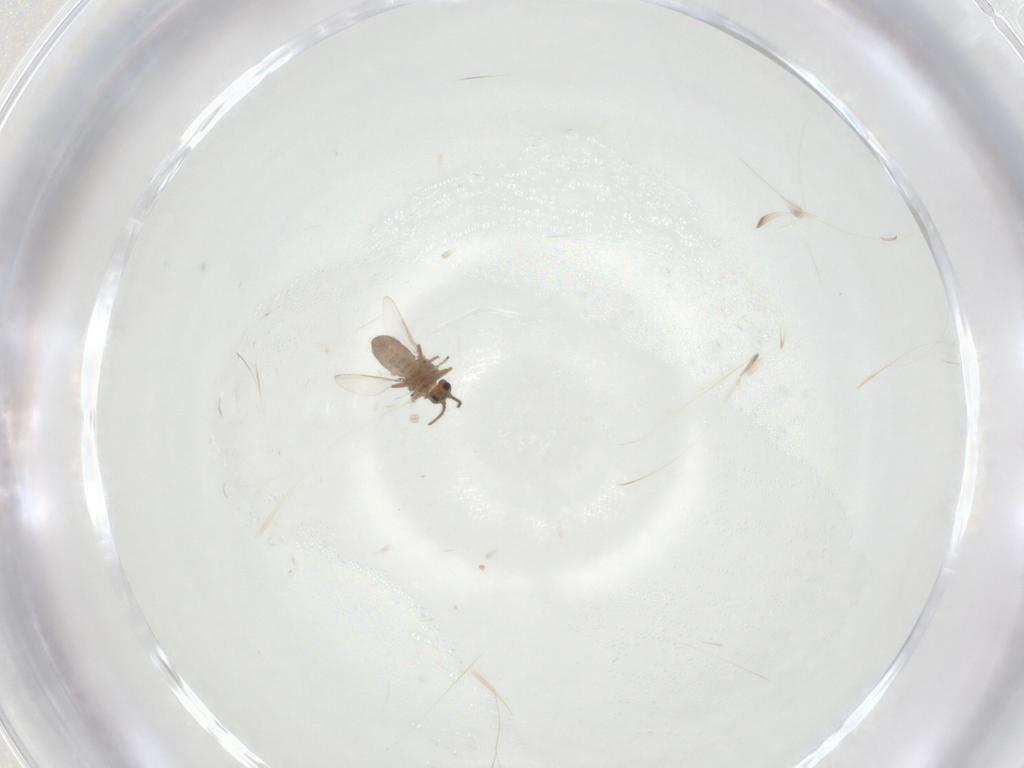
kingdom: Animalia
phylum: Arthropoda
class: Insecta
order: Diptera
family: Ceratopogonidae
